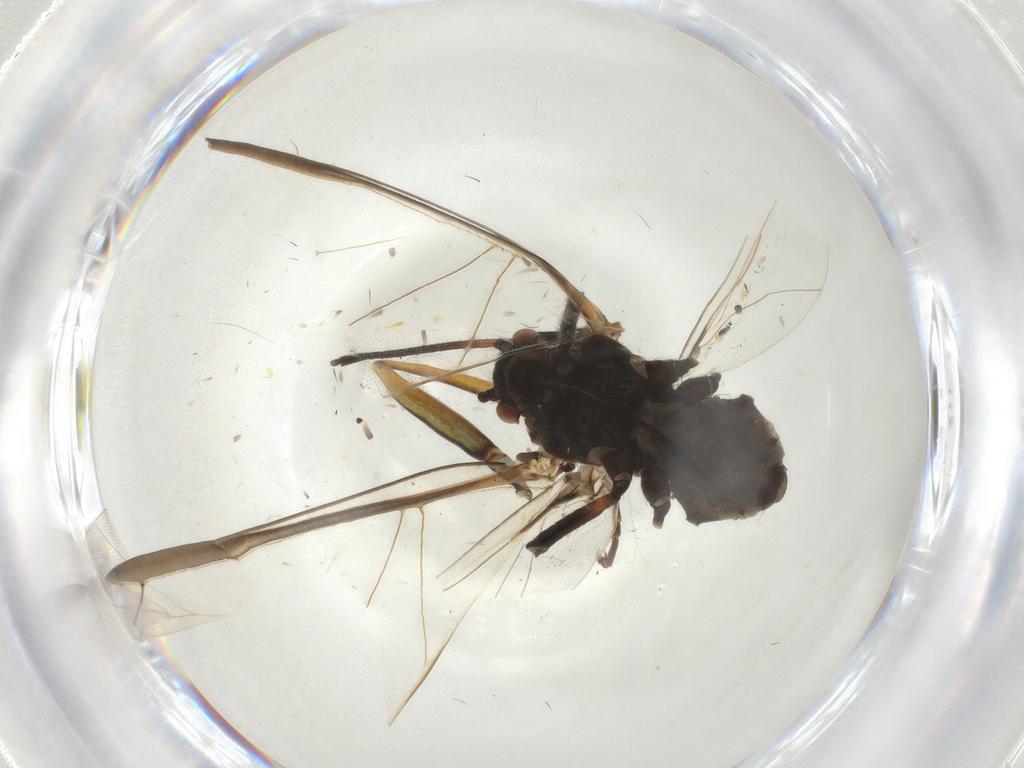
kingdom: Animalia
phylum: Arthropoda
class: Insecta
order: Hemiptera
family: Lachnidae
